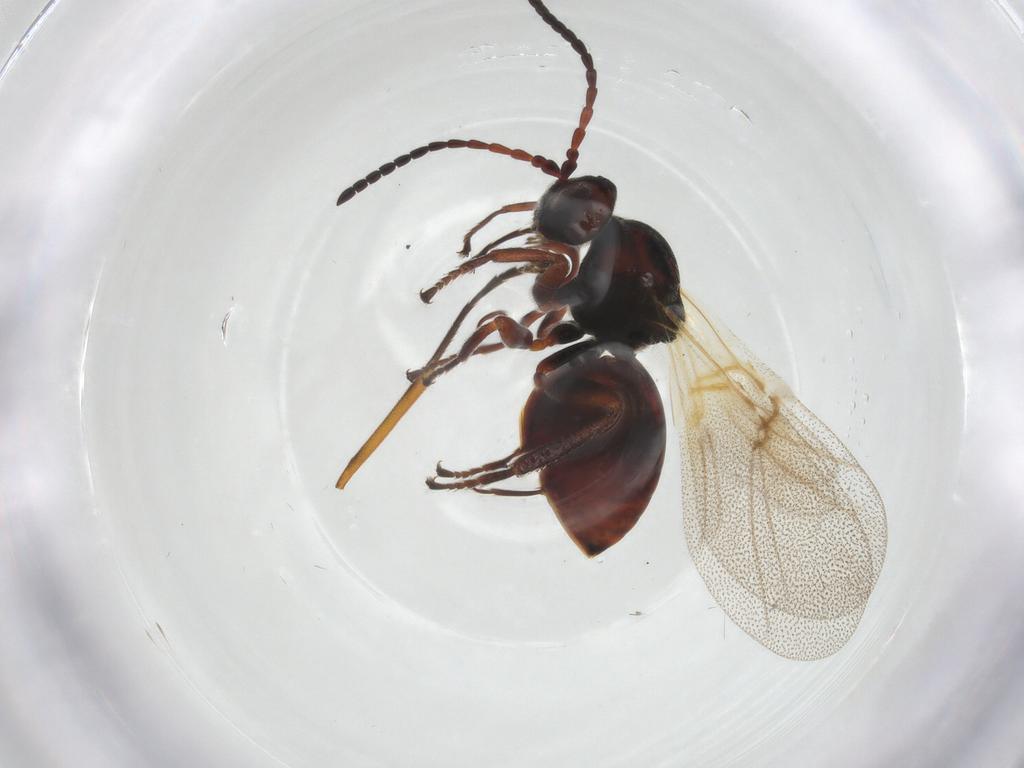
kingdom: Animalia
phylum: Arthropoda
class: Insecta
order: Hymenoptera
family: Cynipidae
